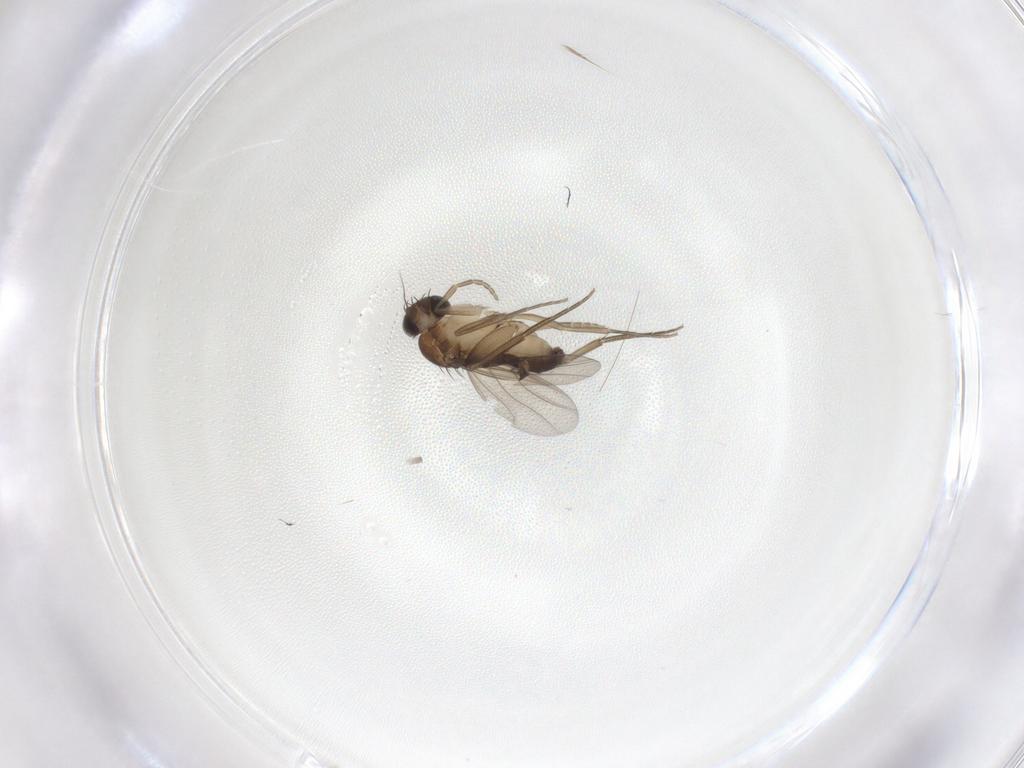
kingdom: Animalia
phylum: Arthropoda
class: Insecta
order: Diptera
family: Phoridae
